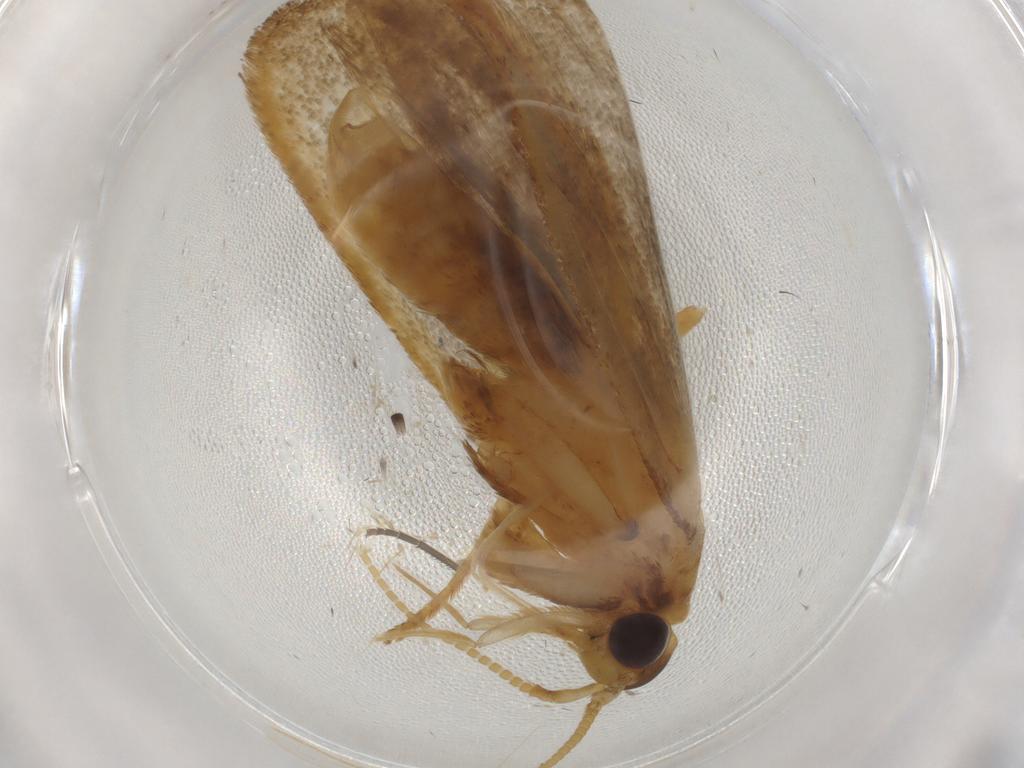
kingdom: Animalia
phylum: Arthropoda
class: Insecta
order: Lepidoptera
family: Lecithoceridae
